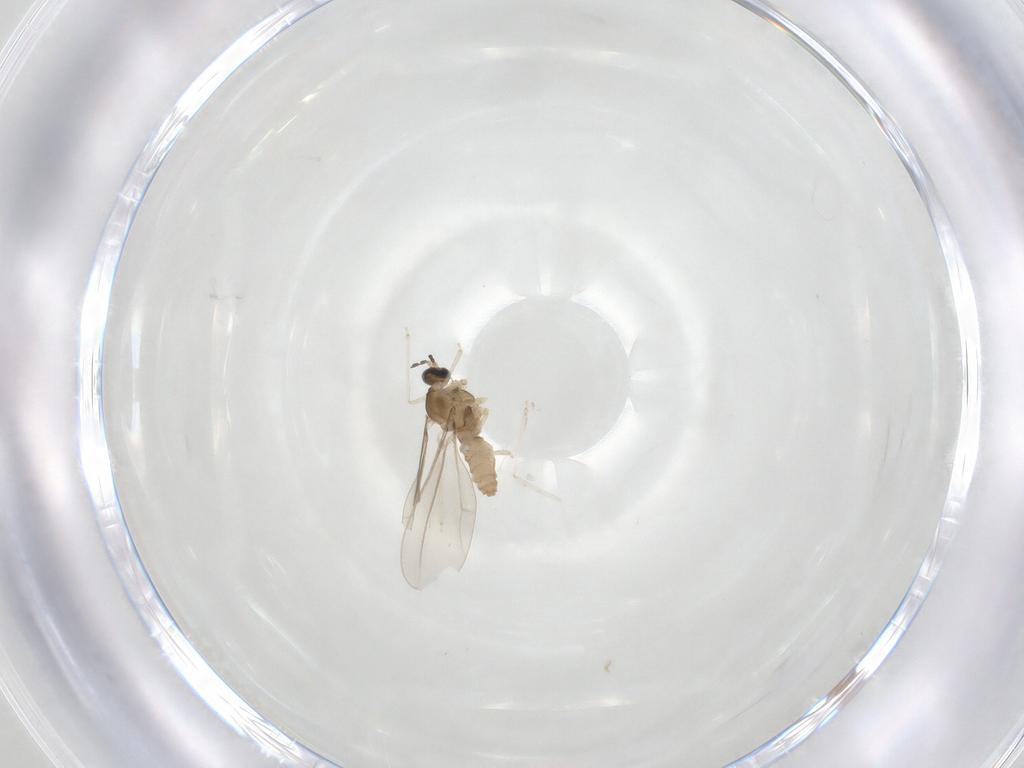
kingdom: Animalia
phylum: Arthropoda
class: Insecta
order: Diptera
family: Cecidomyiidae
